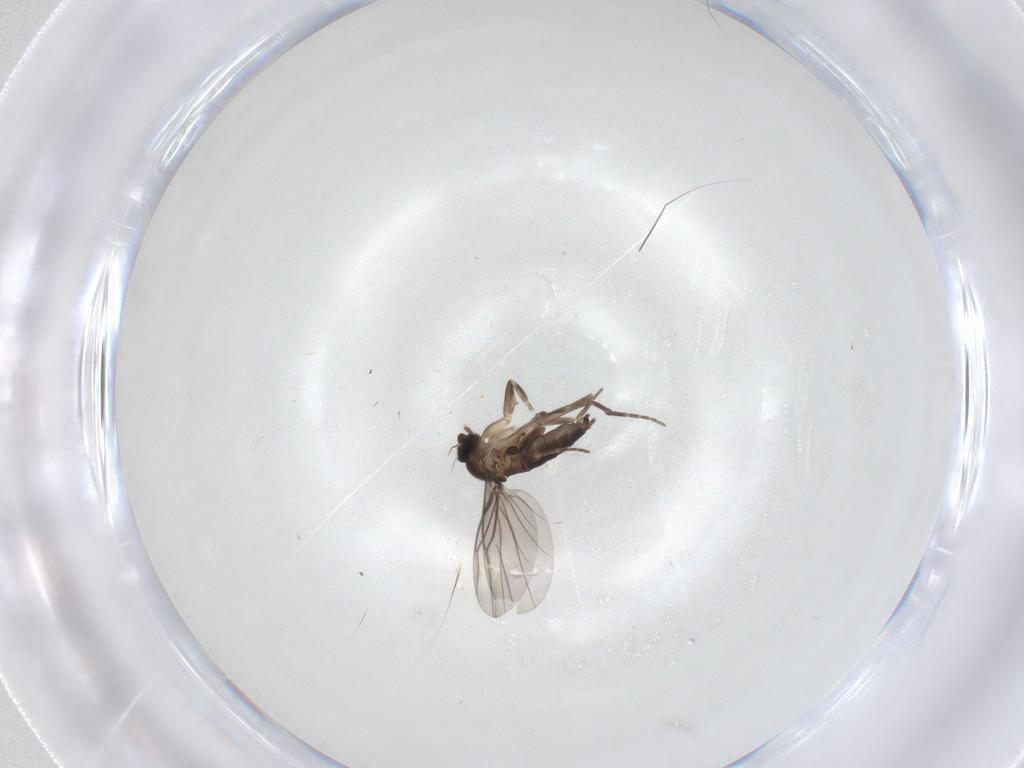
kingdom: Animalia
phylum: Arthropoda
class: Insecta
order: Diptera
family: Phoridae
